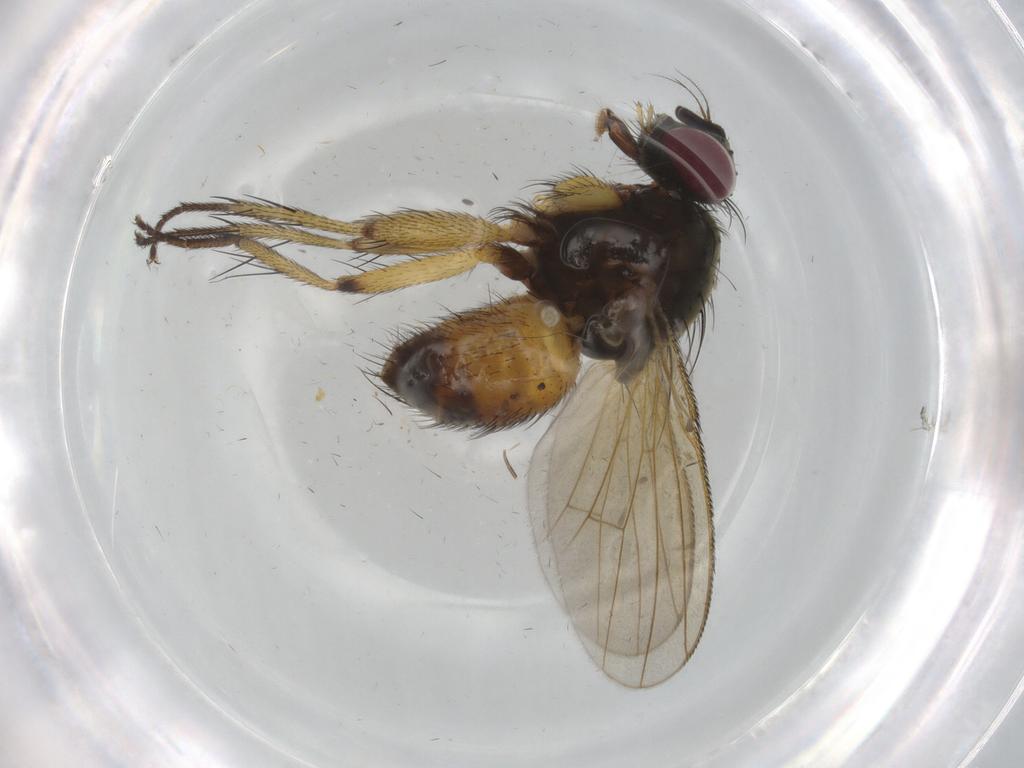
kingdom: Animalia
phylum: Arthropoda
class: Insecta
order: Diptera
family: Muscidae
